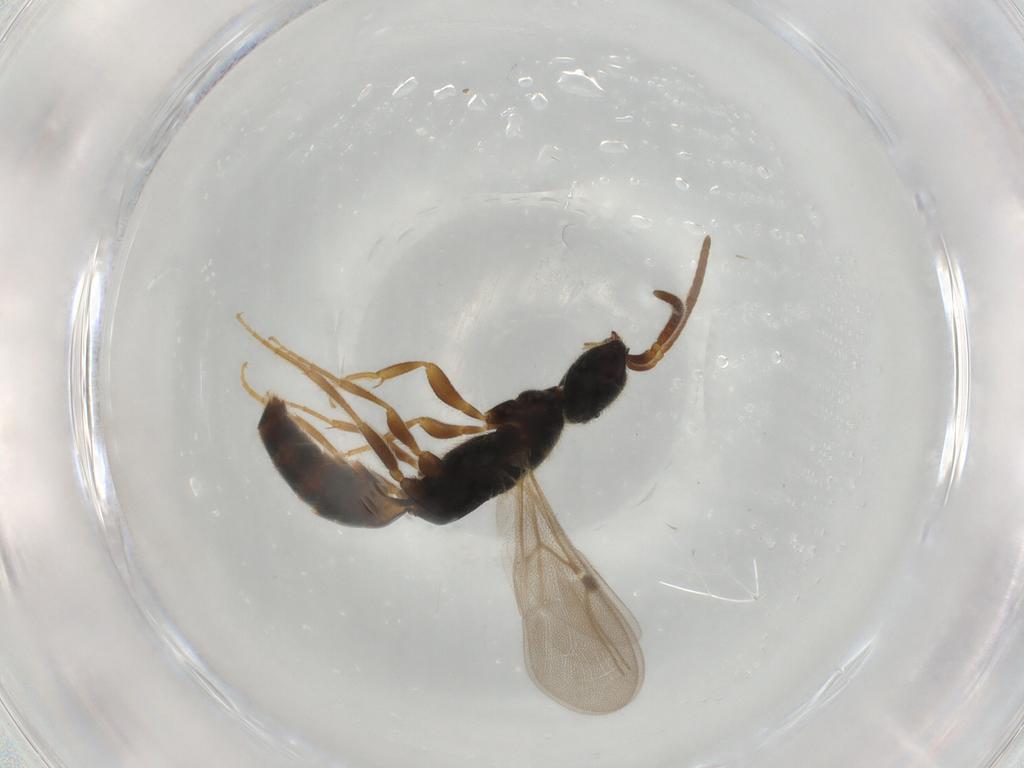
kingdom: Animalia
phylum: Arthropoda
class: Insecta
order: Hymenoptera
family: Bethylidae
